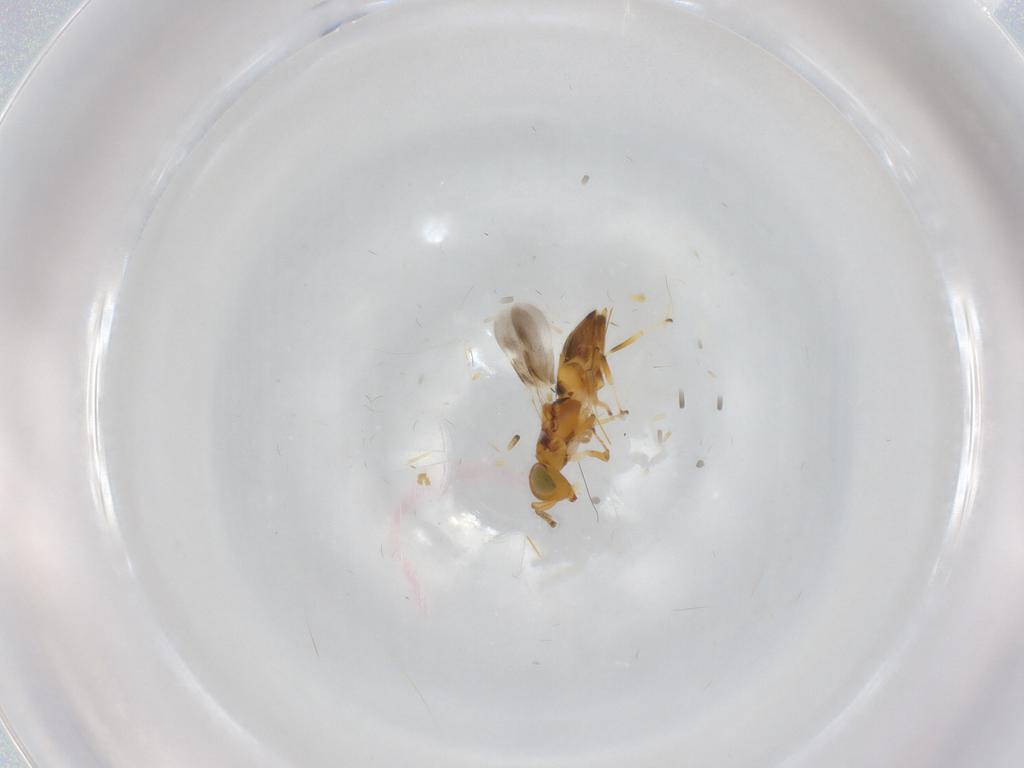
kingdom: Animalia
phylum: Arthropoda
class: Insecta
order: Hymenoptera
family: Encyrtidae
